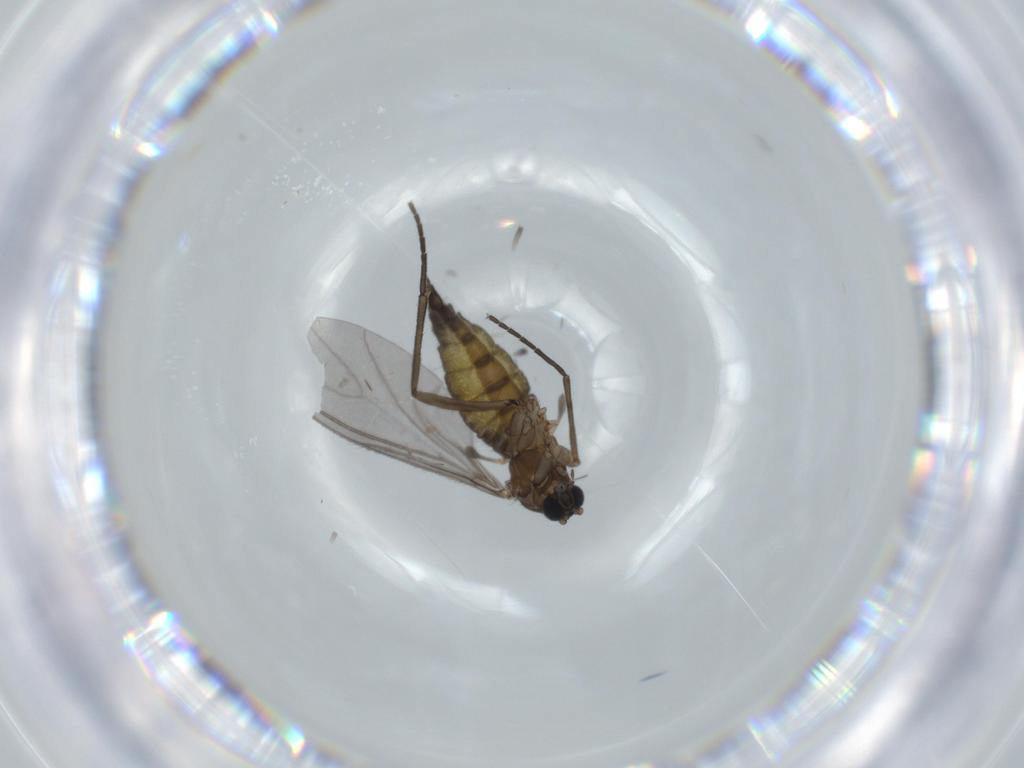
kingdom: Animalia
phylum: Arthropoda
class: Insecta
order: Diptera
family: Sciaridae
